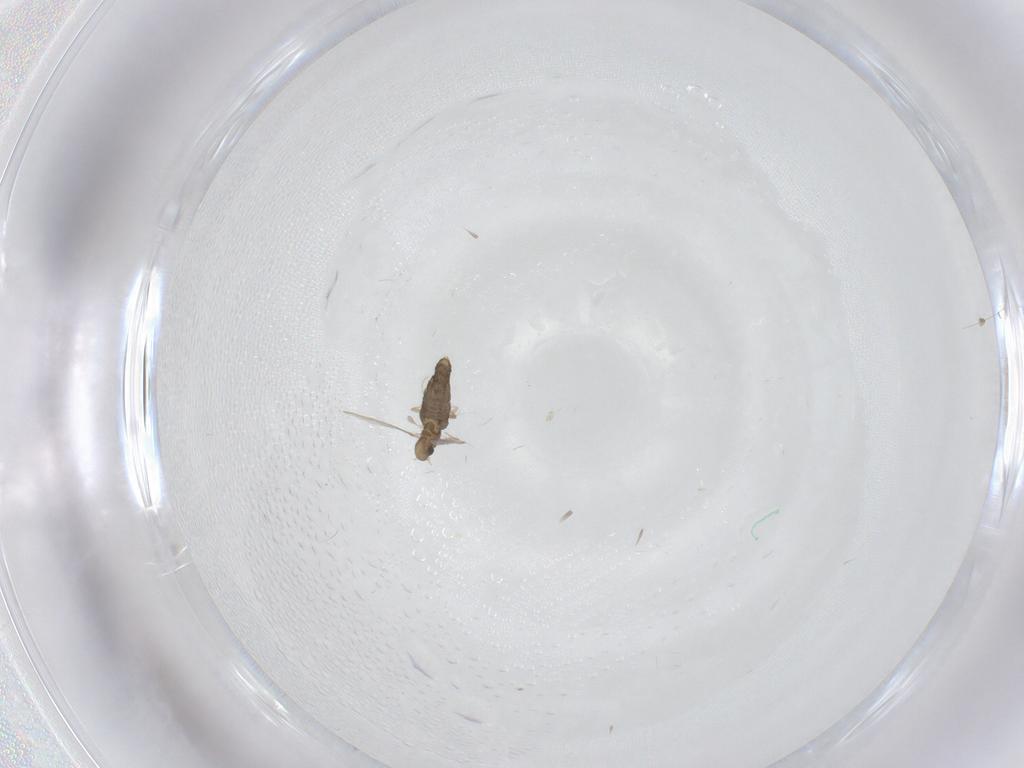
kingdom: Animalia
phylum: Arthropoda
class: Insecta
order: Diptera
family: Chironomidae
